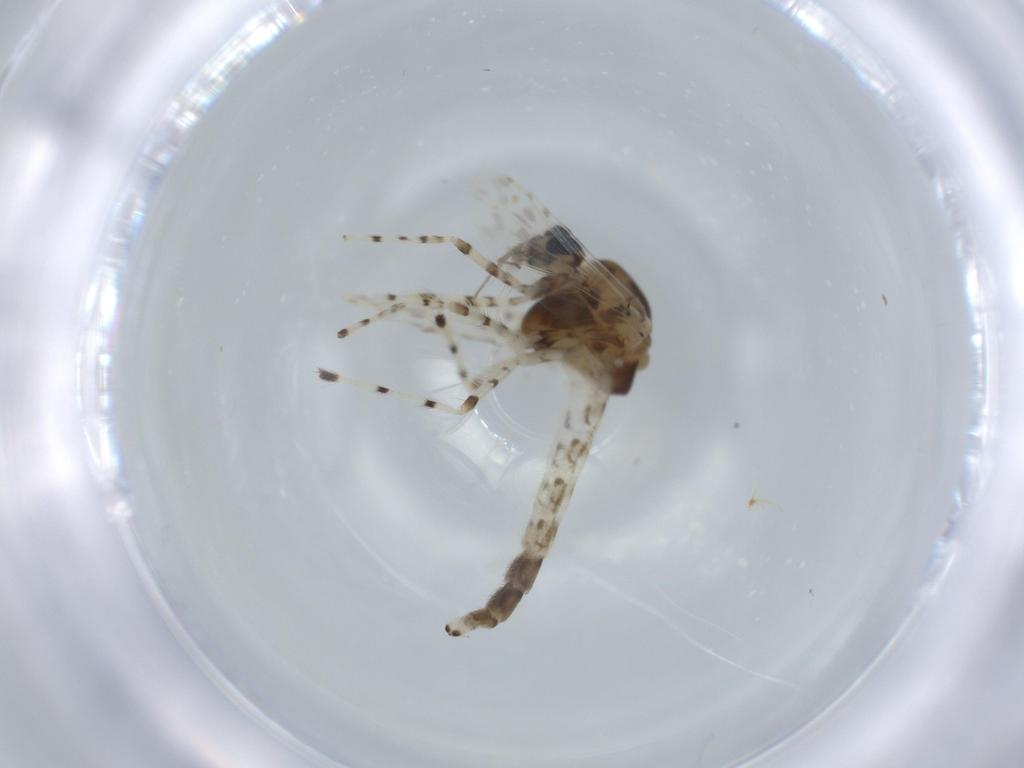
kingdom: Animalia
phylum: Arthropoda
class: Insecta
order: Diptera
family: Chironomidae
